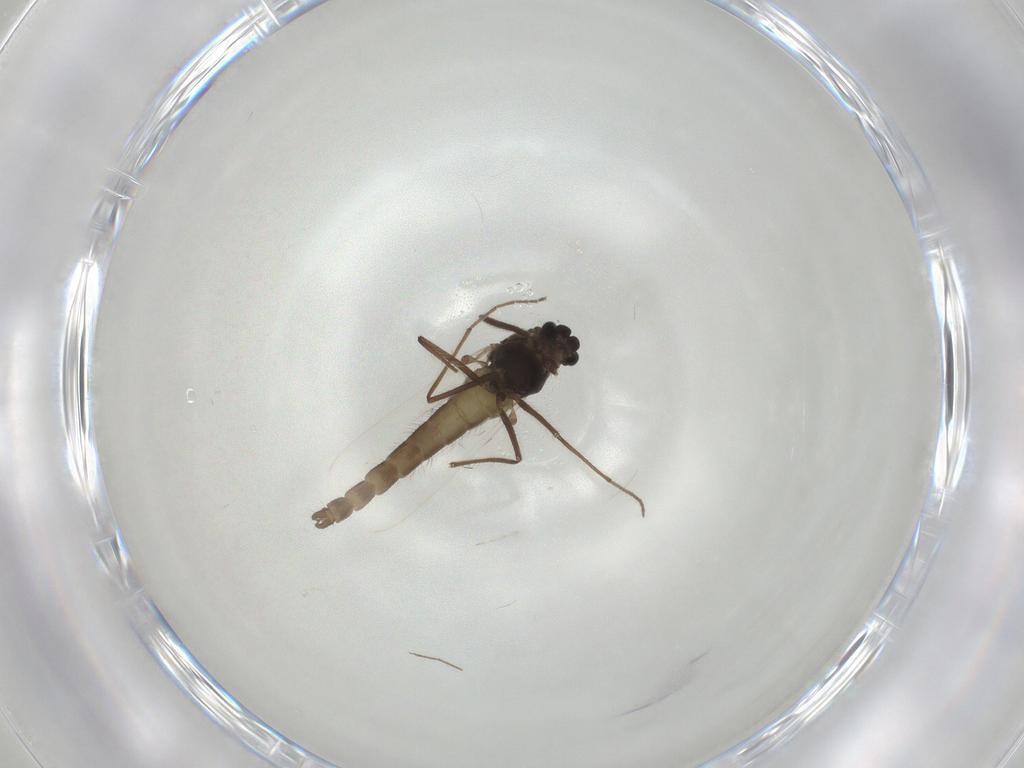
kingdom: Animalia
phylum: Arthropoda
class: Insecta
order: Diptera
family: Chironomidae
